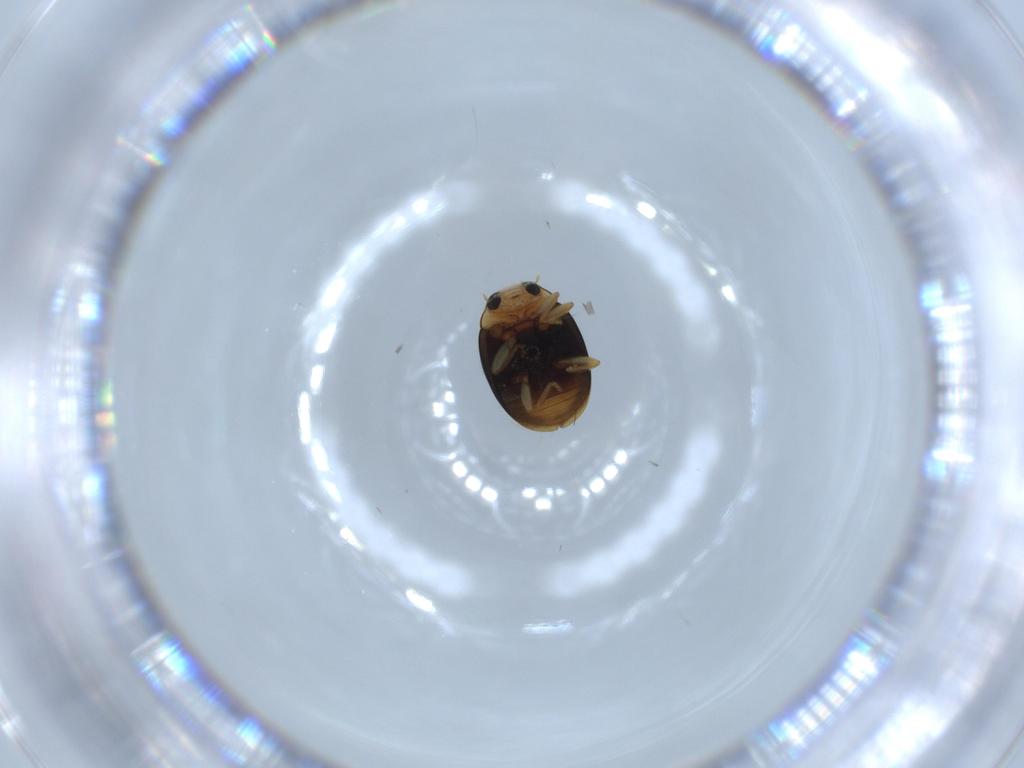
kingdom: Animalia
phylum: Arthropoda
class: Insecta
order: Coleoptera
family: Coccinellidae
